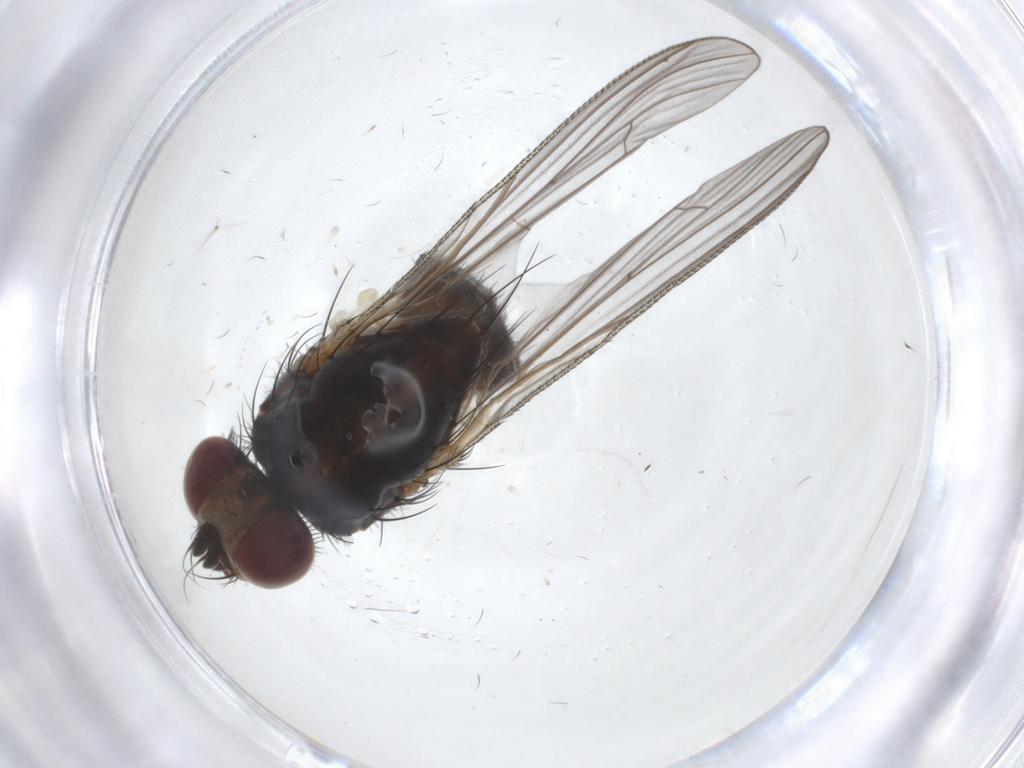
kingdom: Animalia
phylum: Arthropoda
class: Insecta
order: Diptera
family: Anthomyiidae
